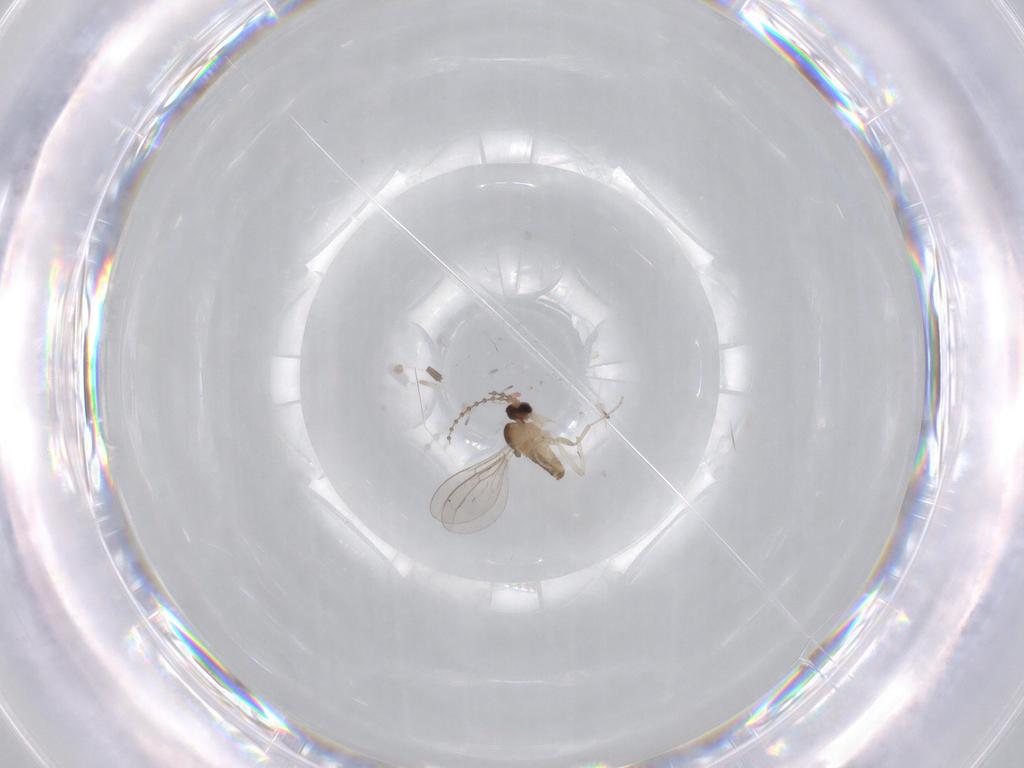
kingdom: Animalia
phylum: Arthropoda
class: Insecta
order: Diptera
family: Cecidomyiidae
